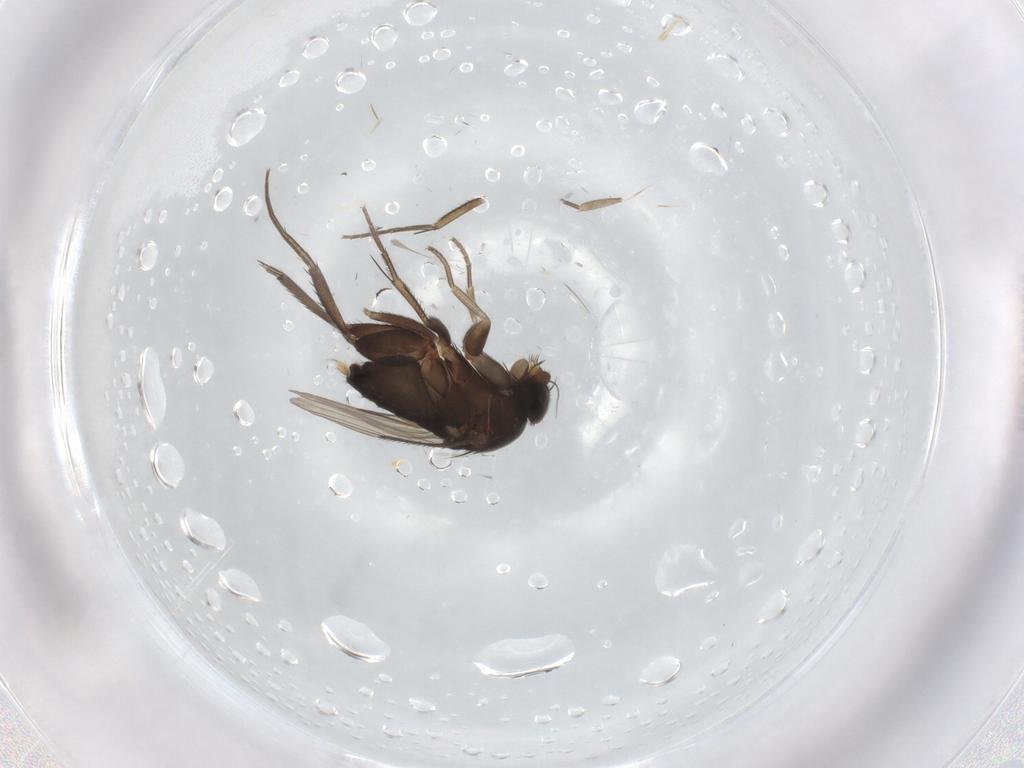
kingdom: Animalia
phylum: Arthropoda
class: Insecta
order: Diptera
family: Phoridae
